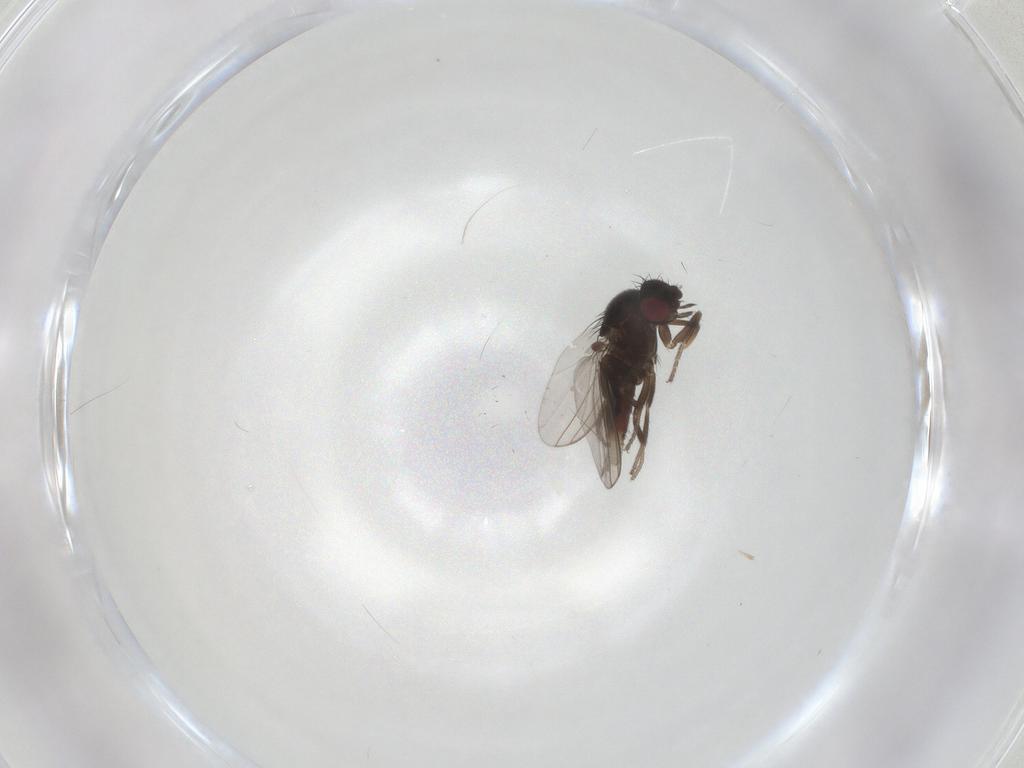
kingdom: Animalia
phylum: Arthropoda
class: Insecta
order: Diptera
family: Milichiidae
